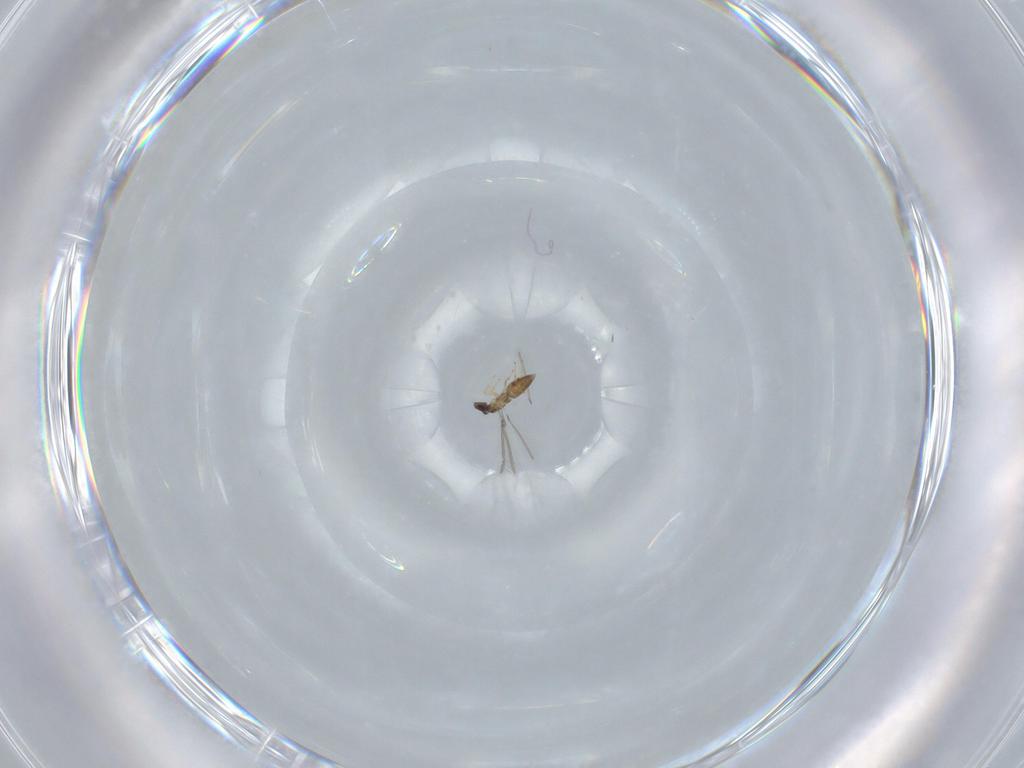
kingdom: Animalia
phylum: Arthropoda
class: Insecta
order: Hymenoptera
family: Mymaridae
